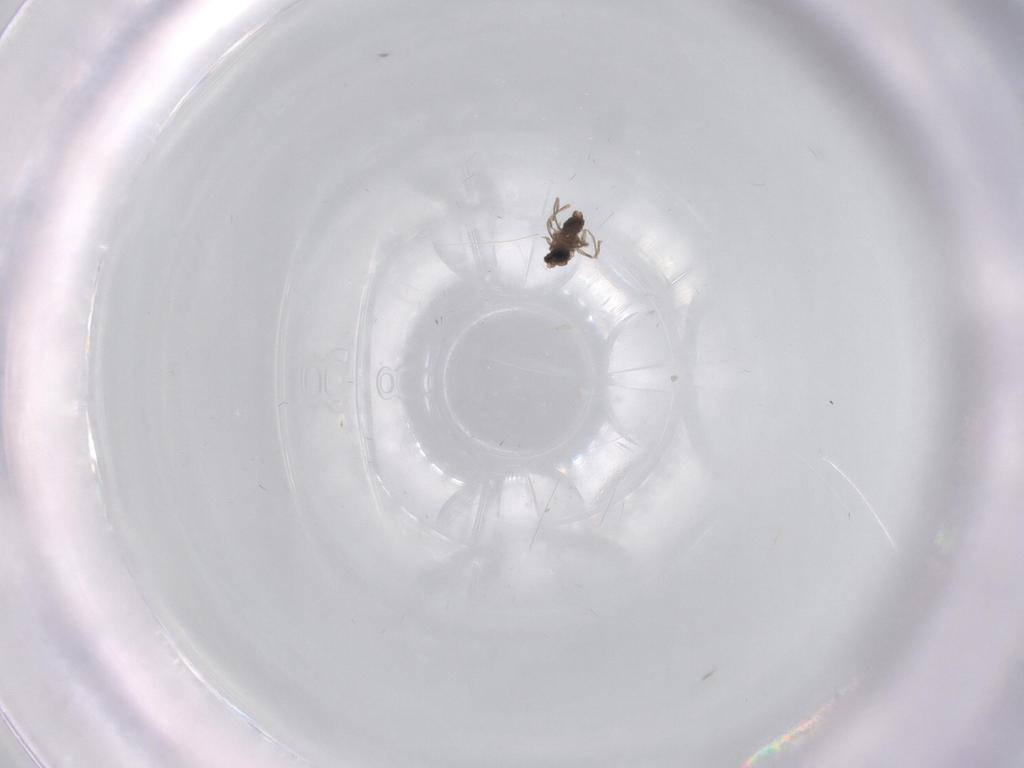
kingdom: Animalia
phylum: Arthropoda
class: Insecta
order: Diptera
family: Cecidomyiidae
